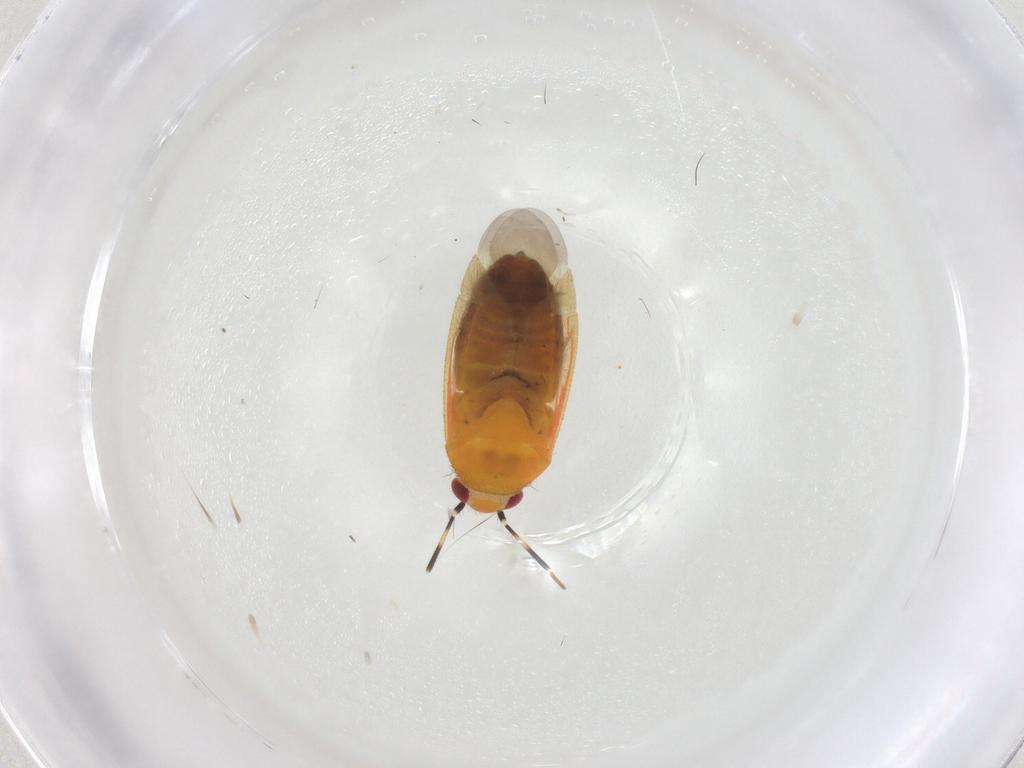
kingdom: Animalia
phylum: Arthropoda
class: Insecta
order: Hemiptera
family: Miridae
